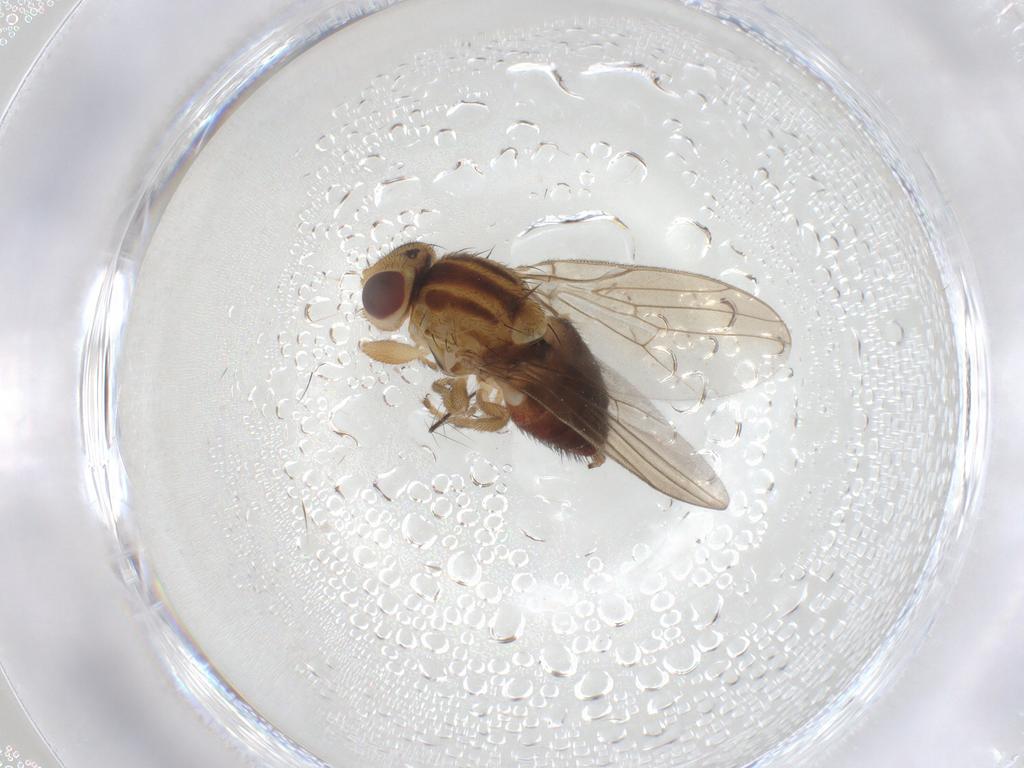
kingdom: Animalia
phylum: Arthropoda
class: Insecta
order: Diptera
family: Chloropidae
